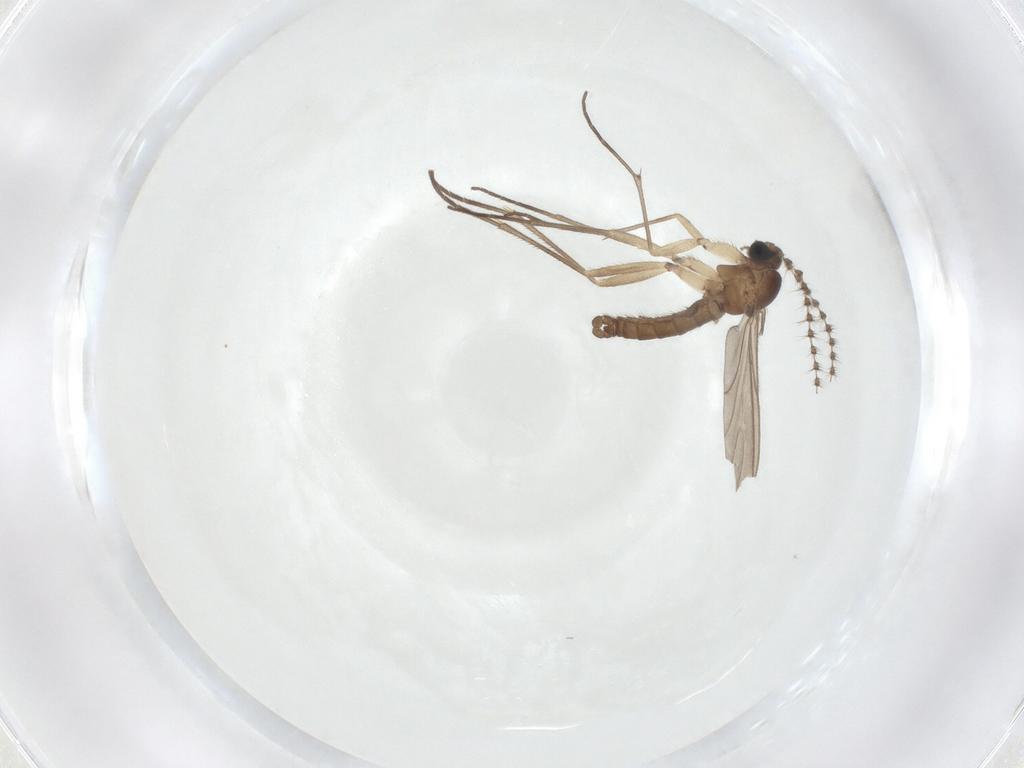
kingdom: Animalia
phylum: Arthropoda
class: Insecta
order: Diptera
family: Sciaridae
